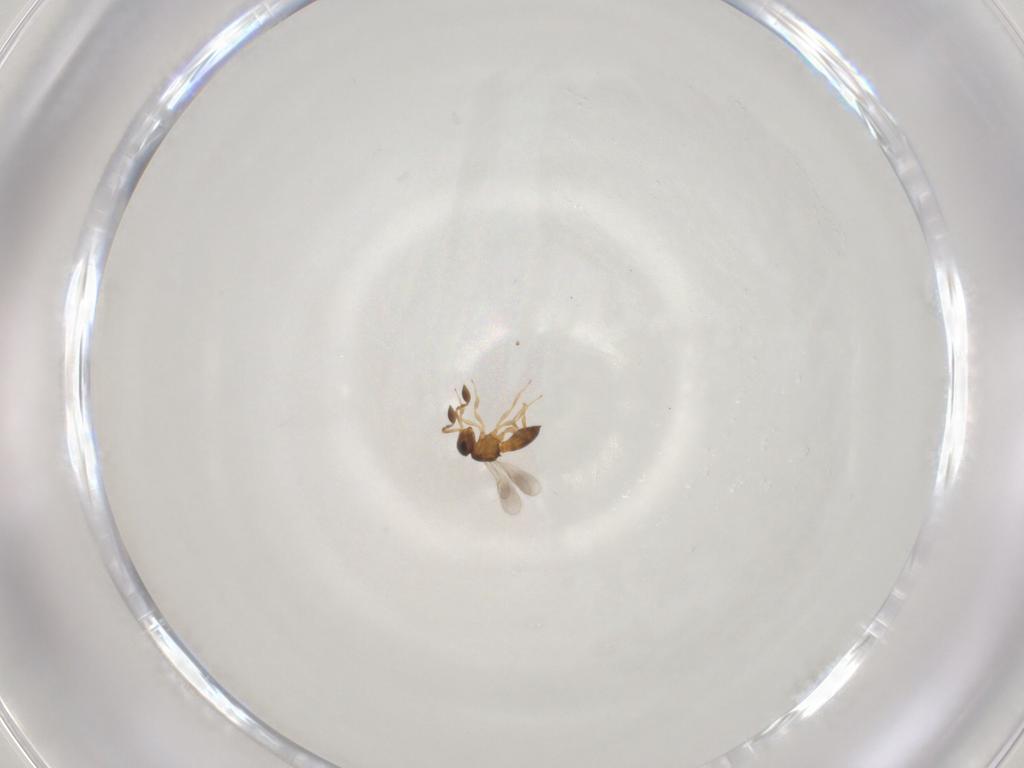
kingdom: Animalia
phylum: Arthropoda
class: Insecta
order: Hymenoptera
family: Scelionidae
